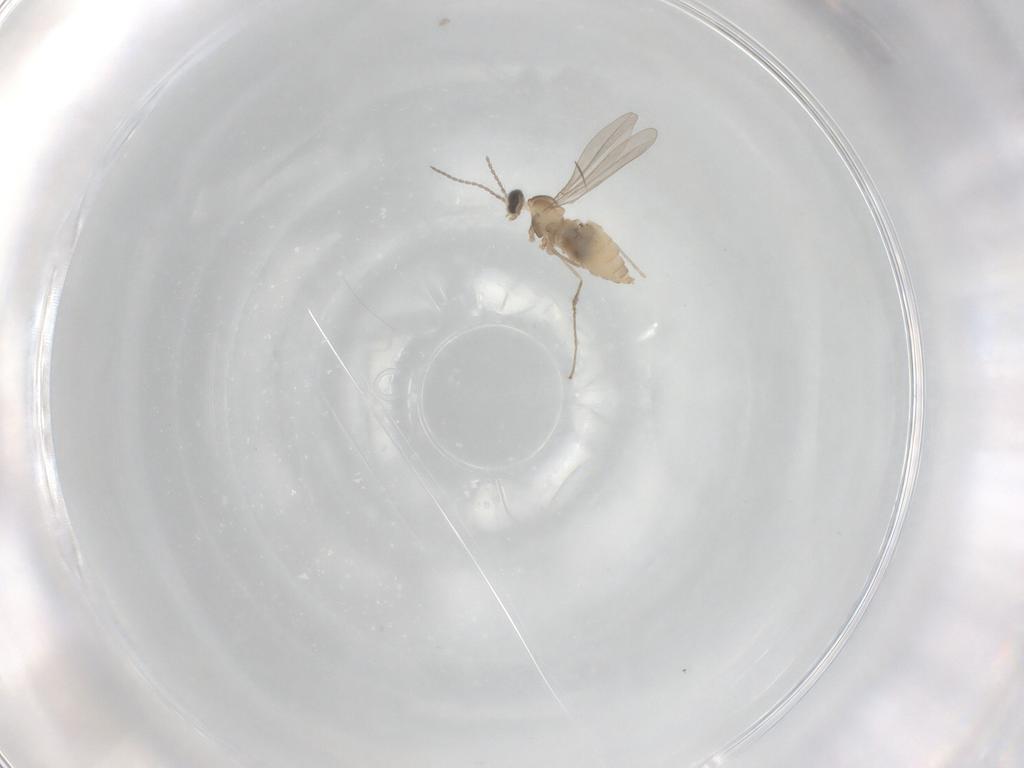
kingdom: Animalia
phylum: Arthropoda
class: Insecta
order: Diptera
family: Cecidomyiidae
